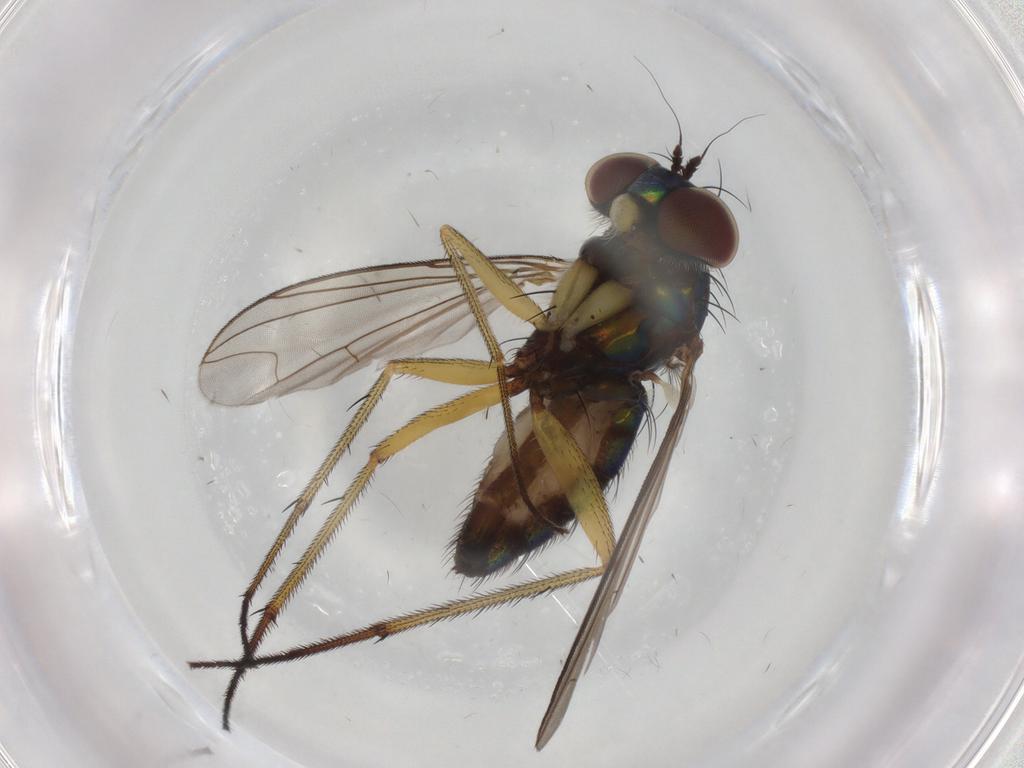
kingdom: Animalia
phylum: Arthropoda
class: Insecta
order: Diptera
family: Dolichopodidae
